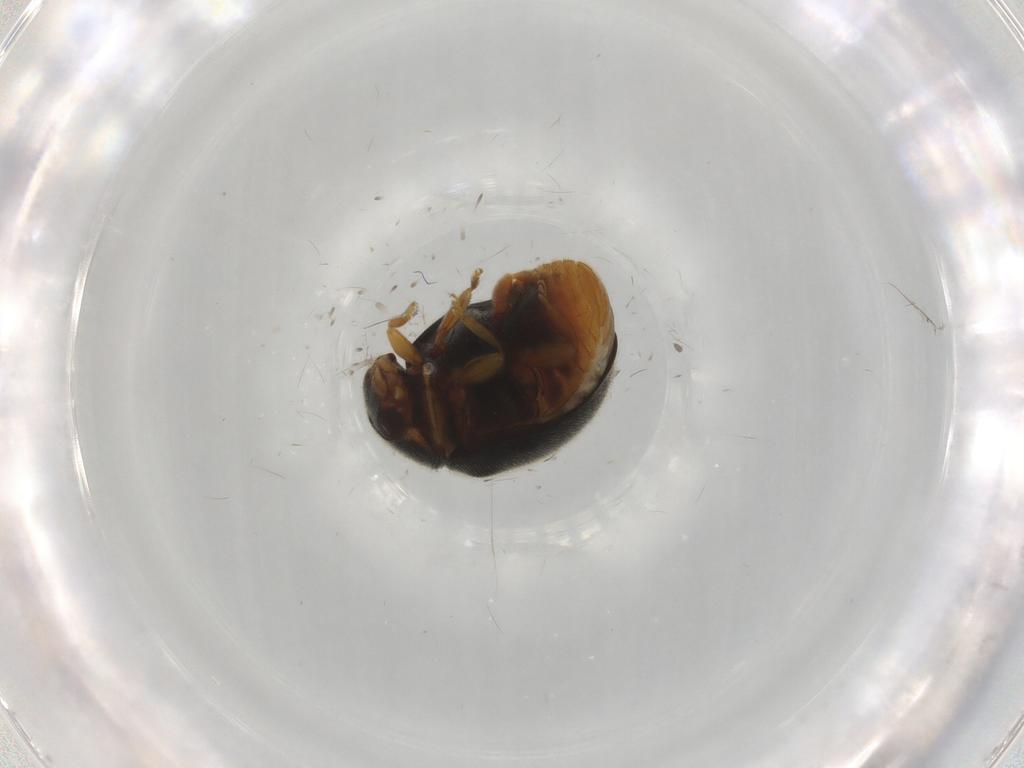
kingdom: Animalia
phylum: Arthropoda
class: Insecta
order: Coleoptera
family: Coccinellidae
